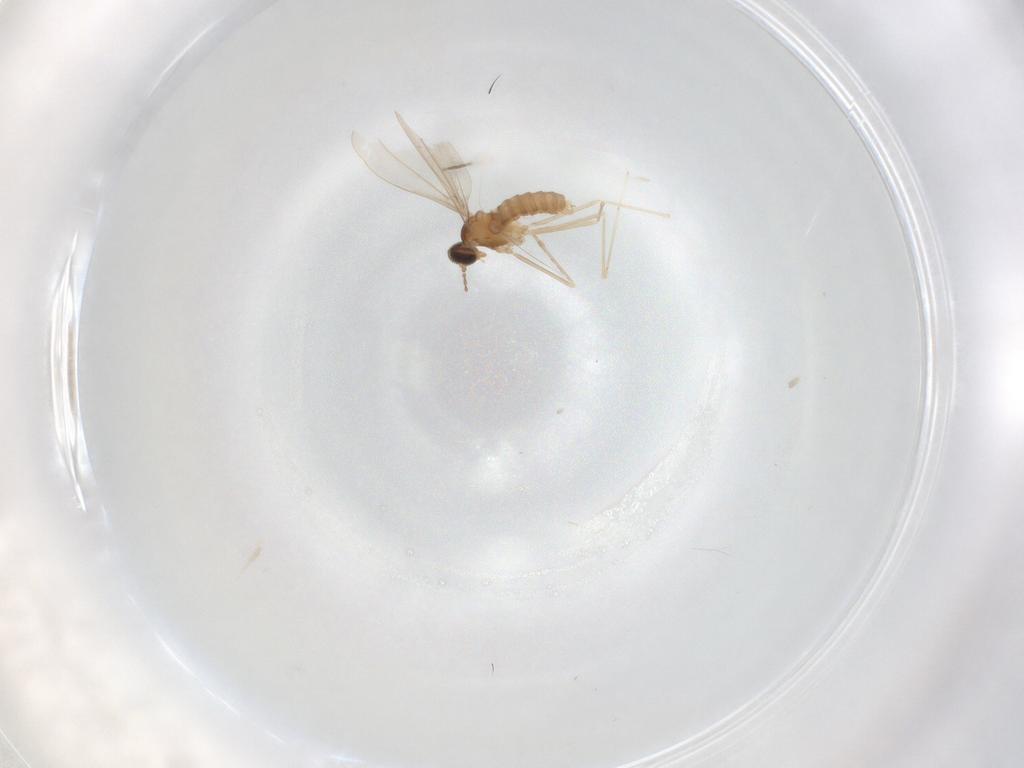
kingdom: Animalia
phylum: Arthropoda
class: Insecta
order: Diptera
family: Cecidomyiidae
